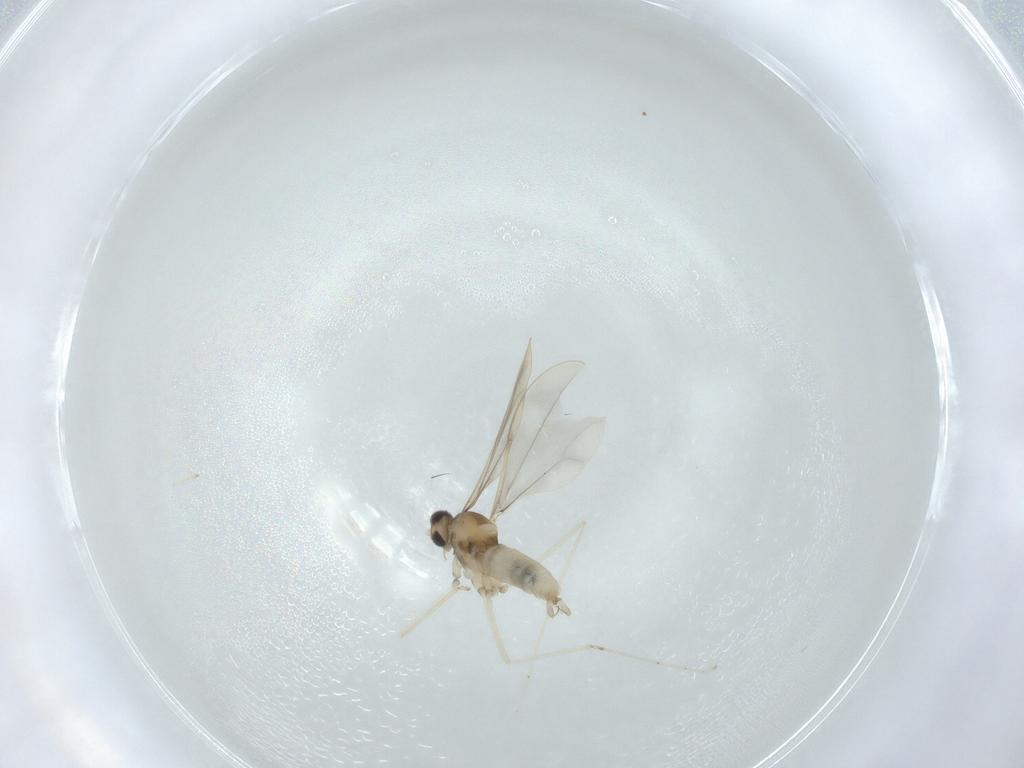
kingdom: Animalia
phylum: Arthropoda
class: Insecta
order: Diptera
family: Cecidomyiidae
